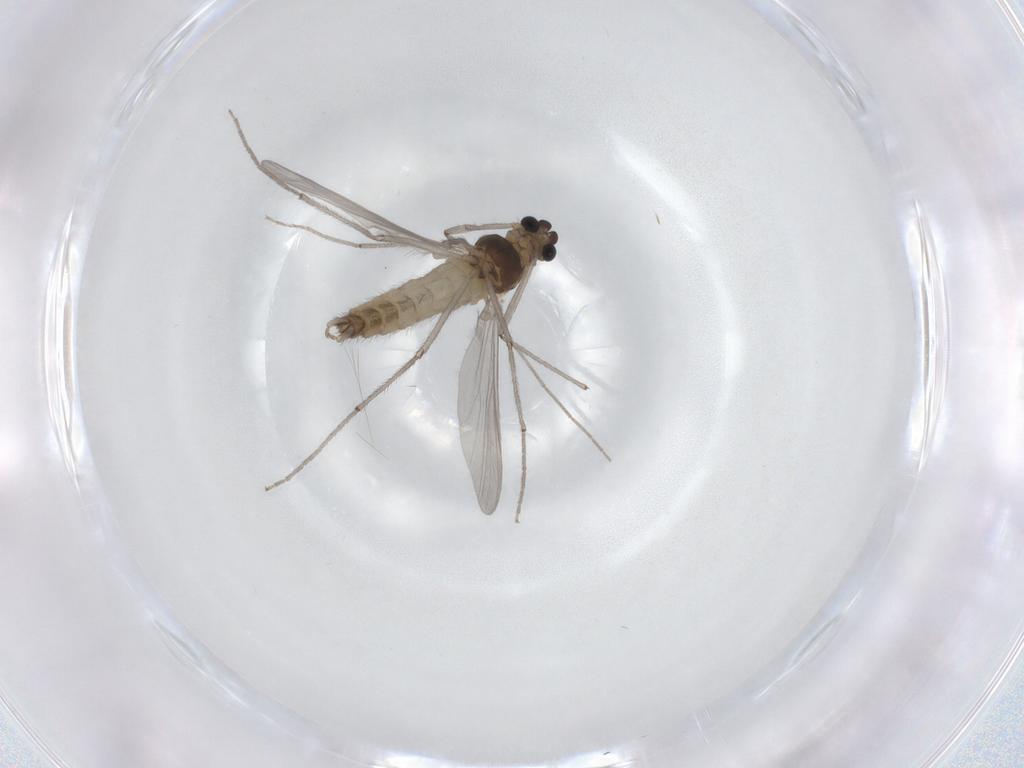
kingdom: Animalia
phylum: Arthropoda
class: Insecta
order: Diptera
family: Chironomidae
